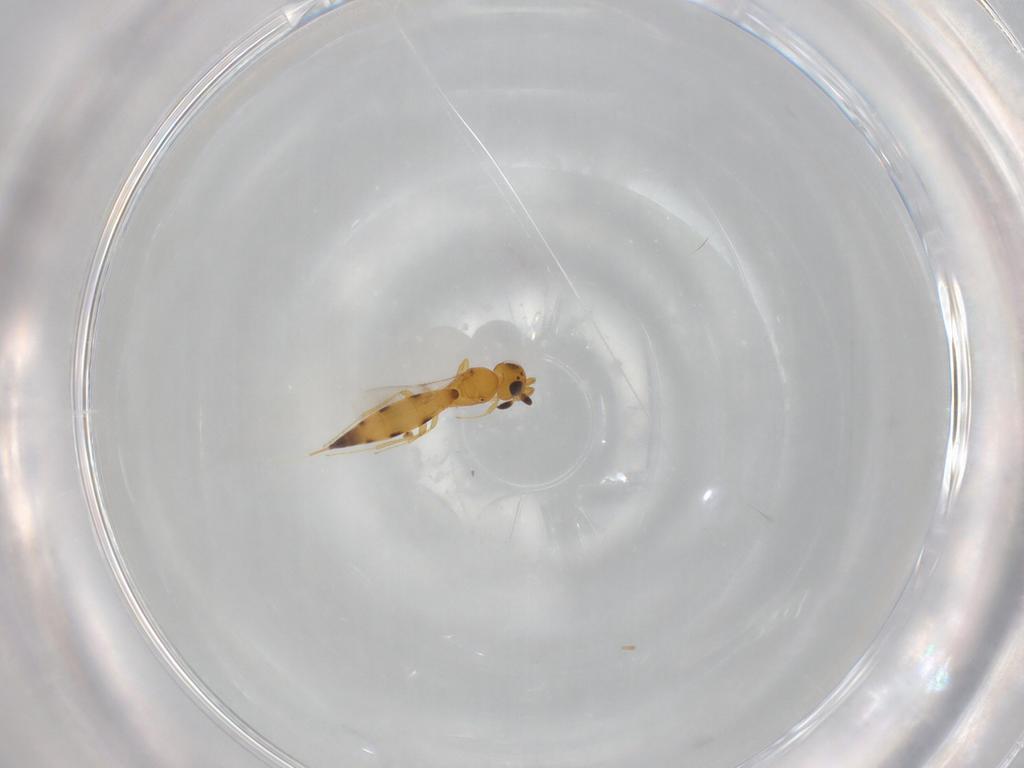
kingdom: Animalia
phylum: Arthropoda
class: Insecta
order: Hymenoptera
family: Scelionidae
